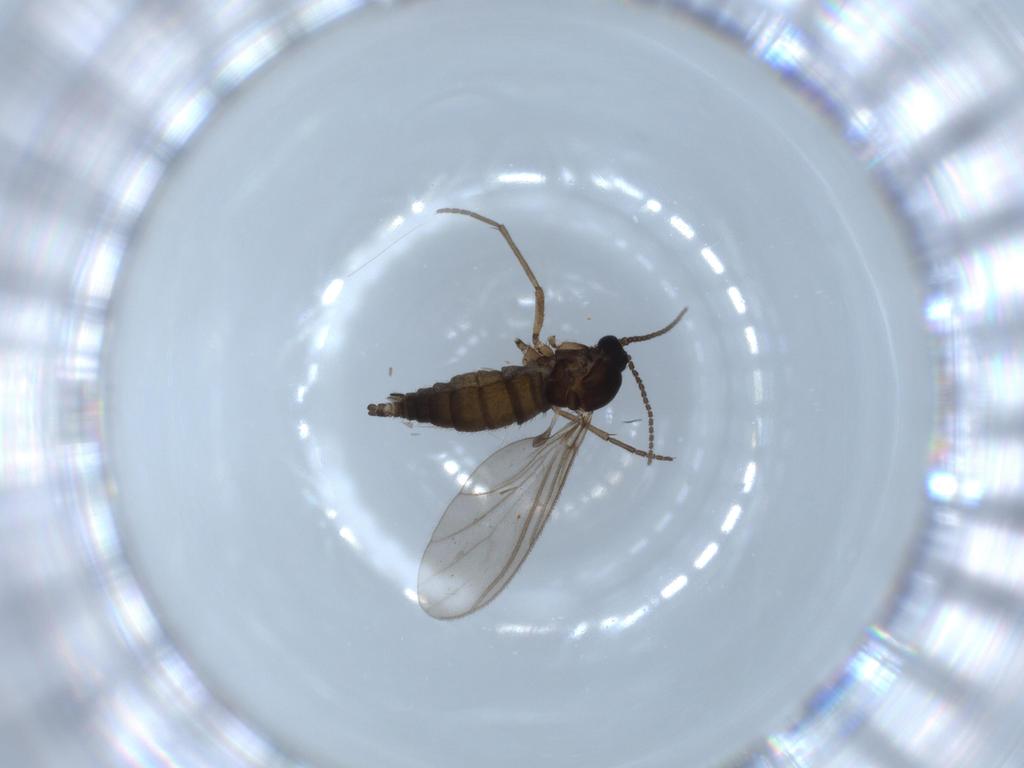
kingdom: Animalia
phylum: Arthropoda
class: Insecta
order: Diptera
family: Sciaridae
